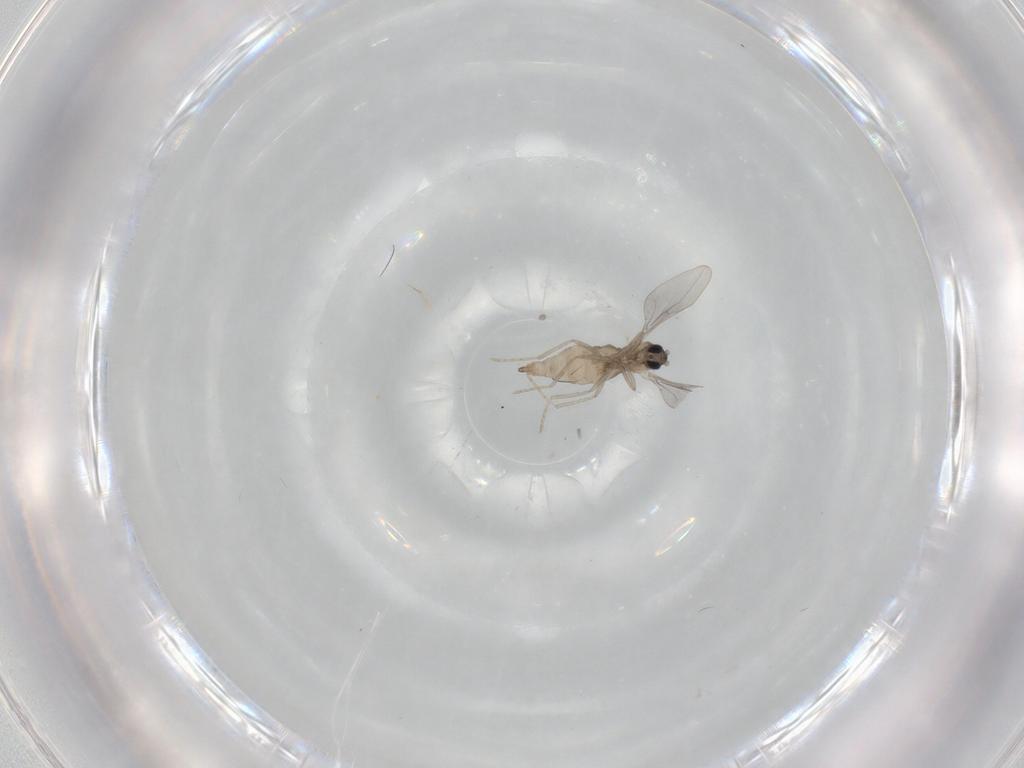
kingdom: Animalia
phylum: Arthropoda
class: Insecta
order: Diptera
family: Cecidomyiidae
